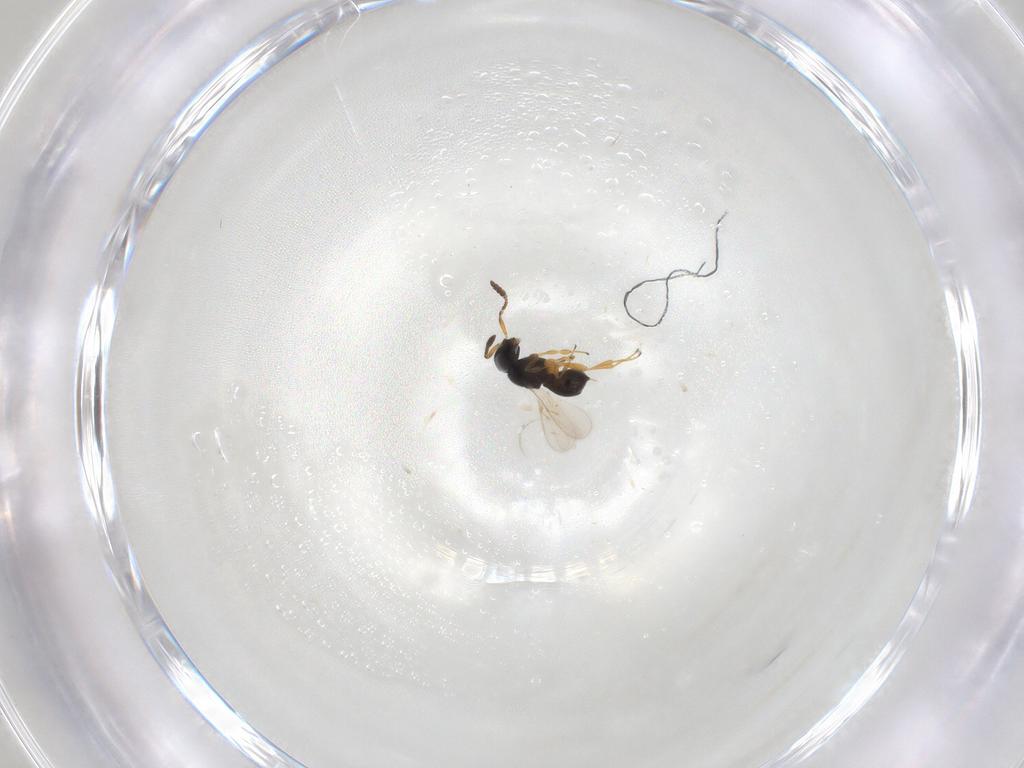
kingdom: Animalia
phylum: Arthropoda
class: Insecta
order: Hymenoptera
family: Scelionidae
